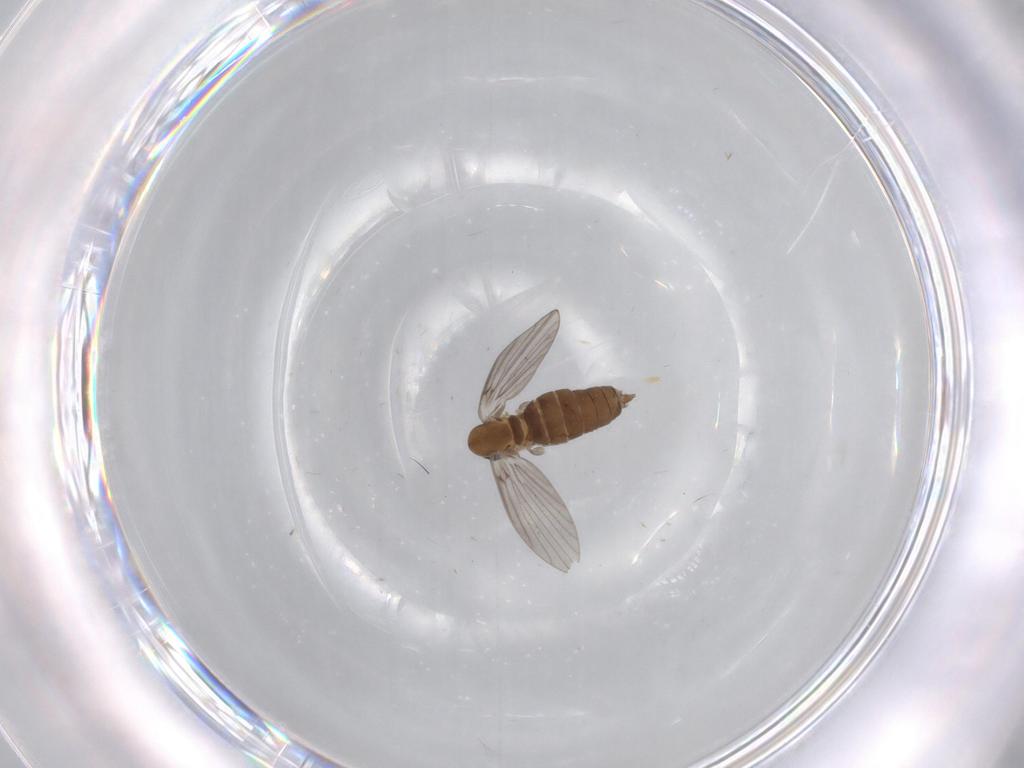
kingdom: Animalia
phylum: Arthropoda
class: Insecta
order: Diptera
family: Psychodidae
